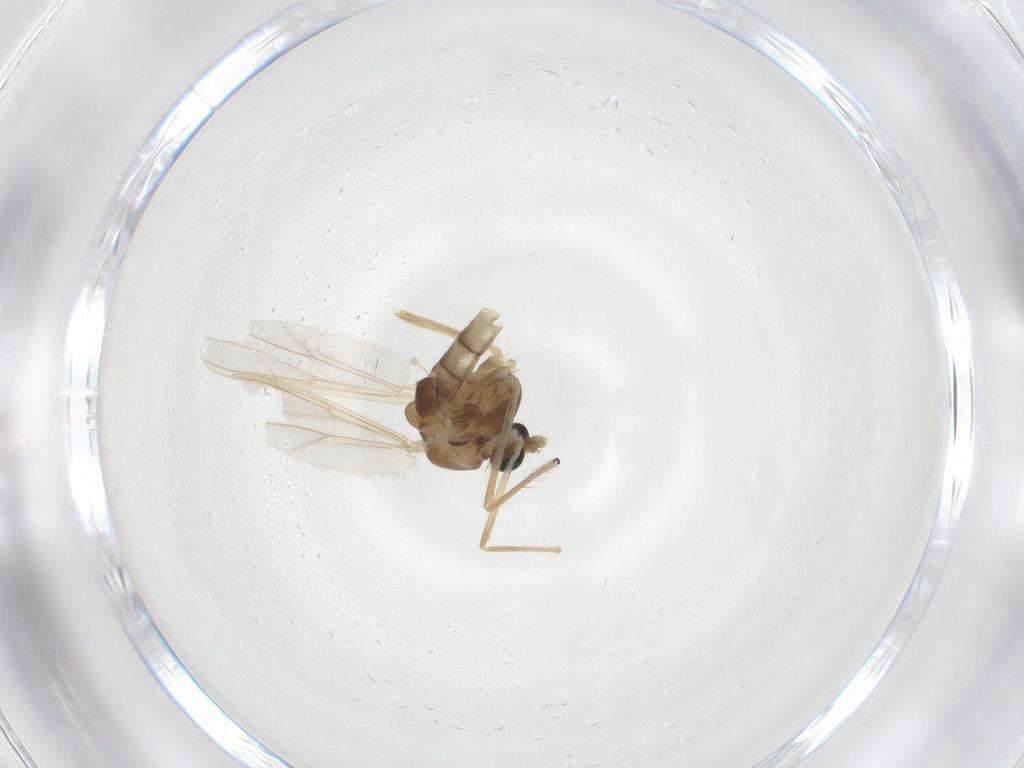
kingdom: Animalia
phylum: Arthropoda
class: Insecta
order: Diptera
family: Chironomidae
